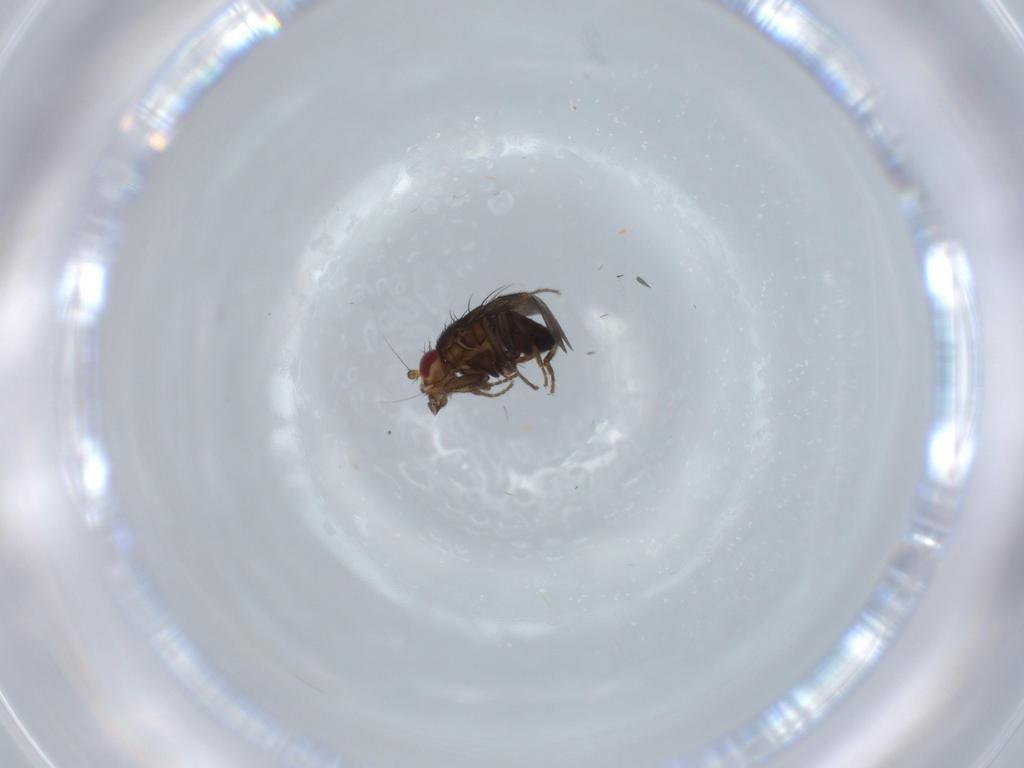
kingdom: Animalia
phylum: Arthropoda
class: Insecta
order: Diptera
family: Sphaeroceridae
